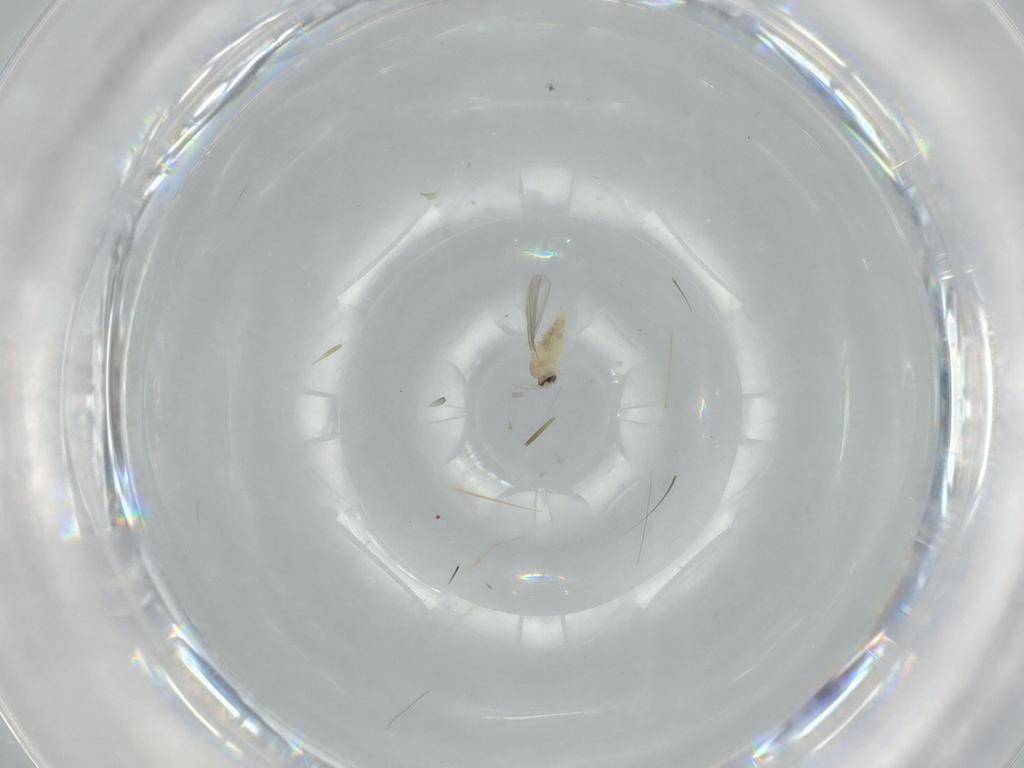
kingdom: Animalia
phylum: Arthropoda
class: Insecta
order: Diptera
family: Cecidomyiidae
